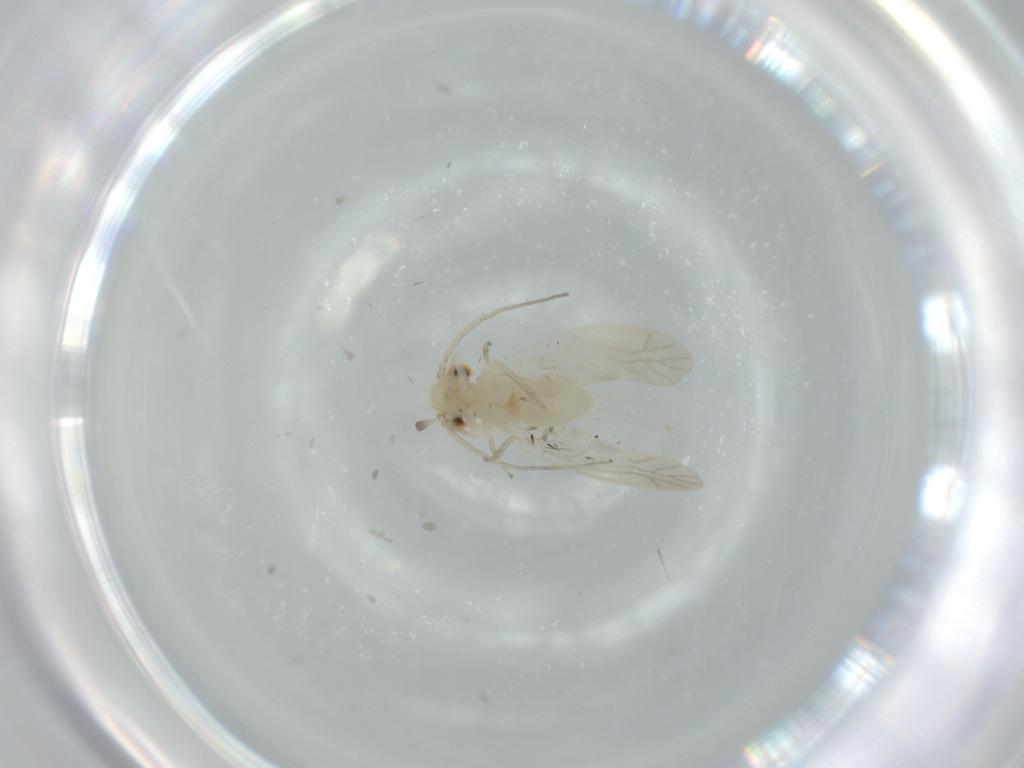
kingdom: Animalia
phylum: Arthropoda
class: Insecta
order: Psocodea
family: Caeciliusidae
